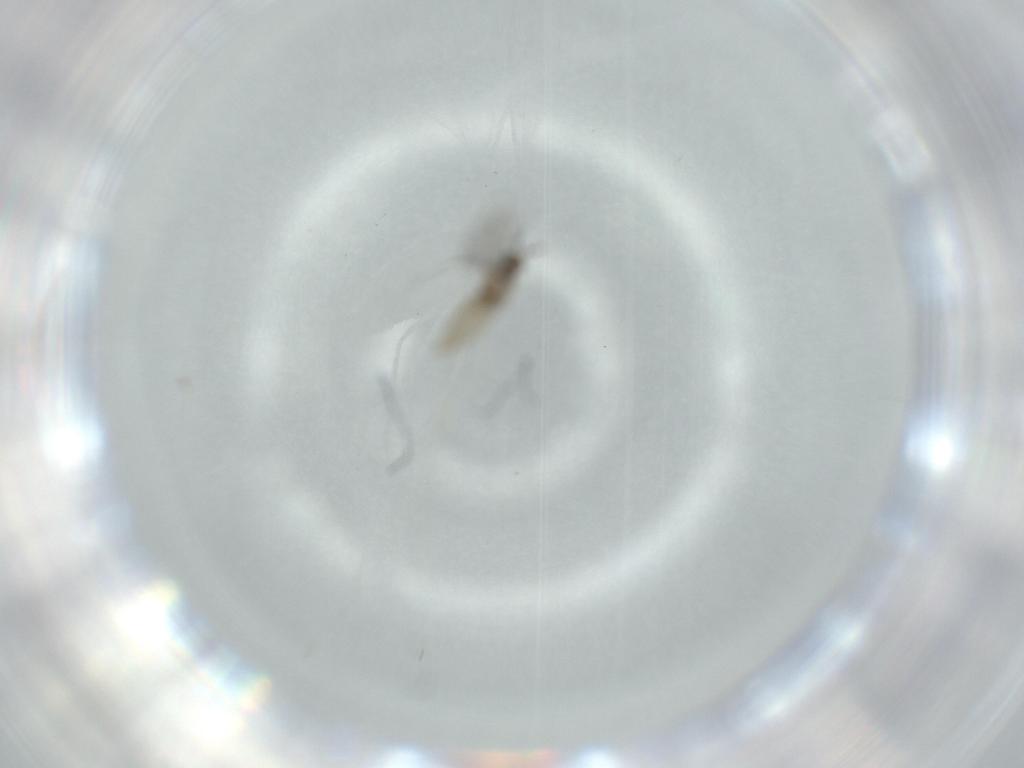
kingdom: Animalia
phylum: Arthropoda
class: Insecta
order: Diptera
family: Sciaridae
